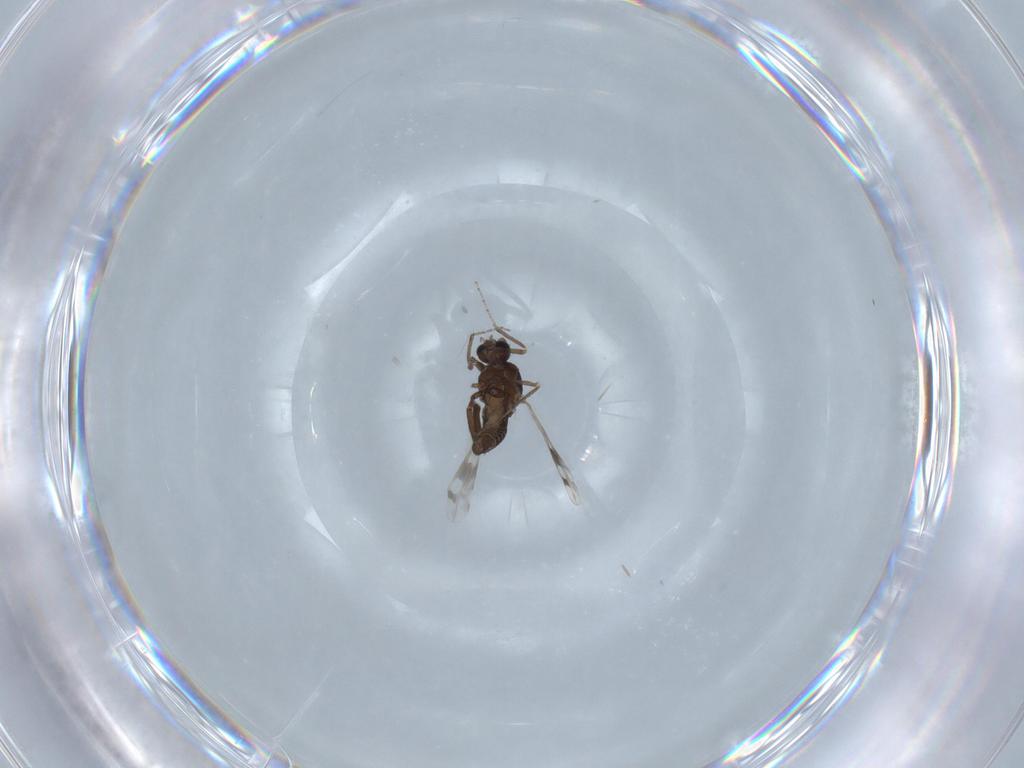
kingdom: Animalia
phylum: Arthropoda
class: Insecta
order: Diptera
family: Ceratopogonidae
